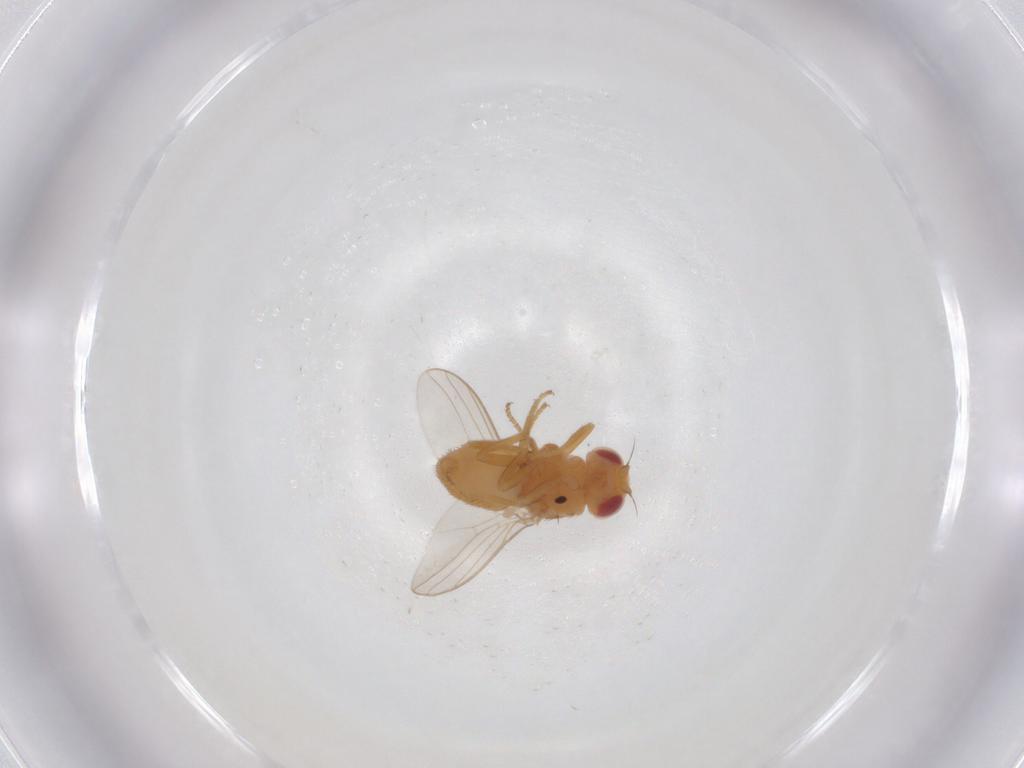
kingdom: Animalia
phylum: Arthropoda
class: Insecta
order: Diptera
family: Chloropidae
